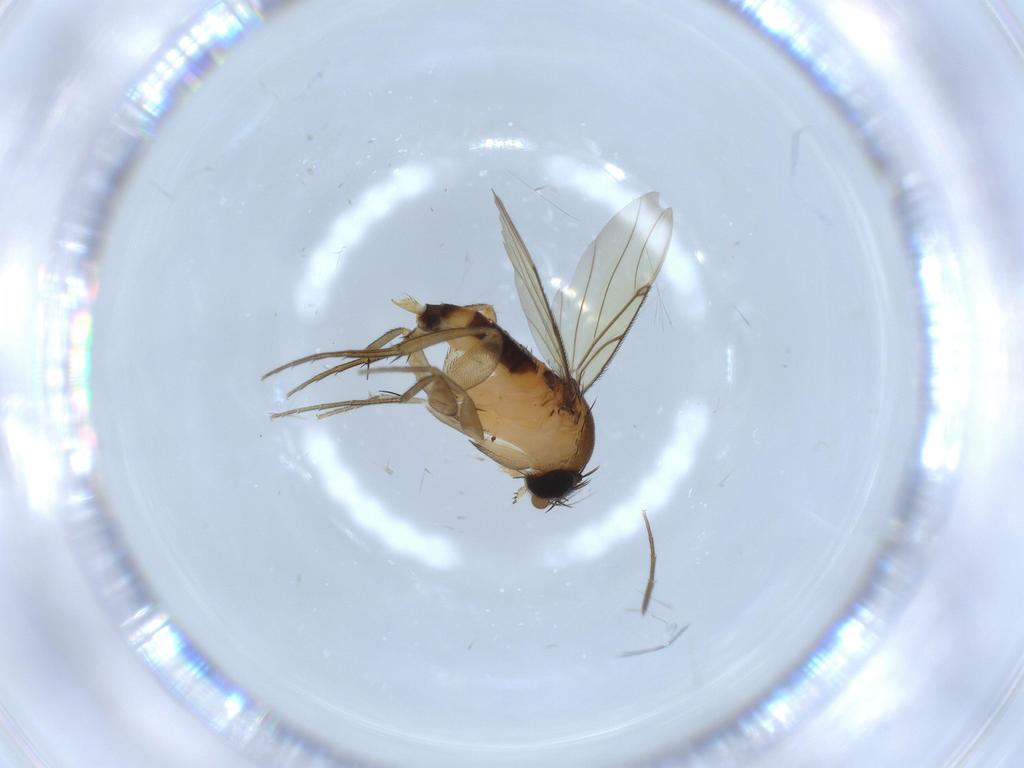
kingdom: Animalia
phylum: Arthropoda
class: Insecta
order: Diptera
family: Phoridae
